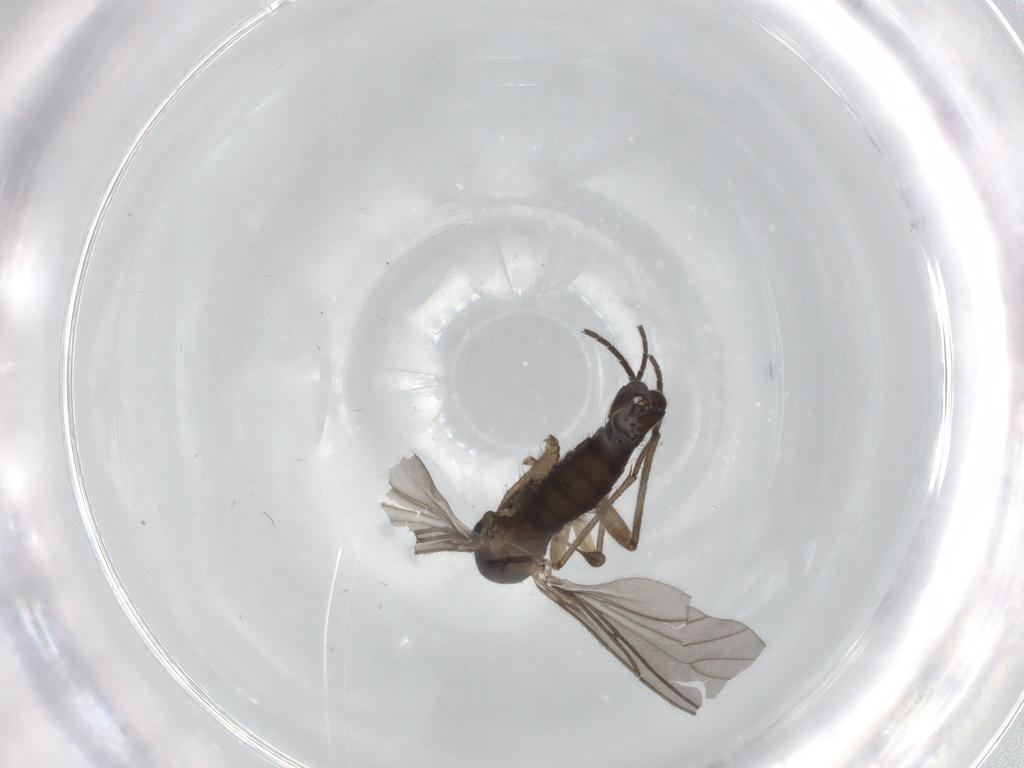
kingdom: Animalia
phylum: Arthropoda
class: Insecta
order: Diptera
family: Sciaridae
